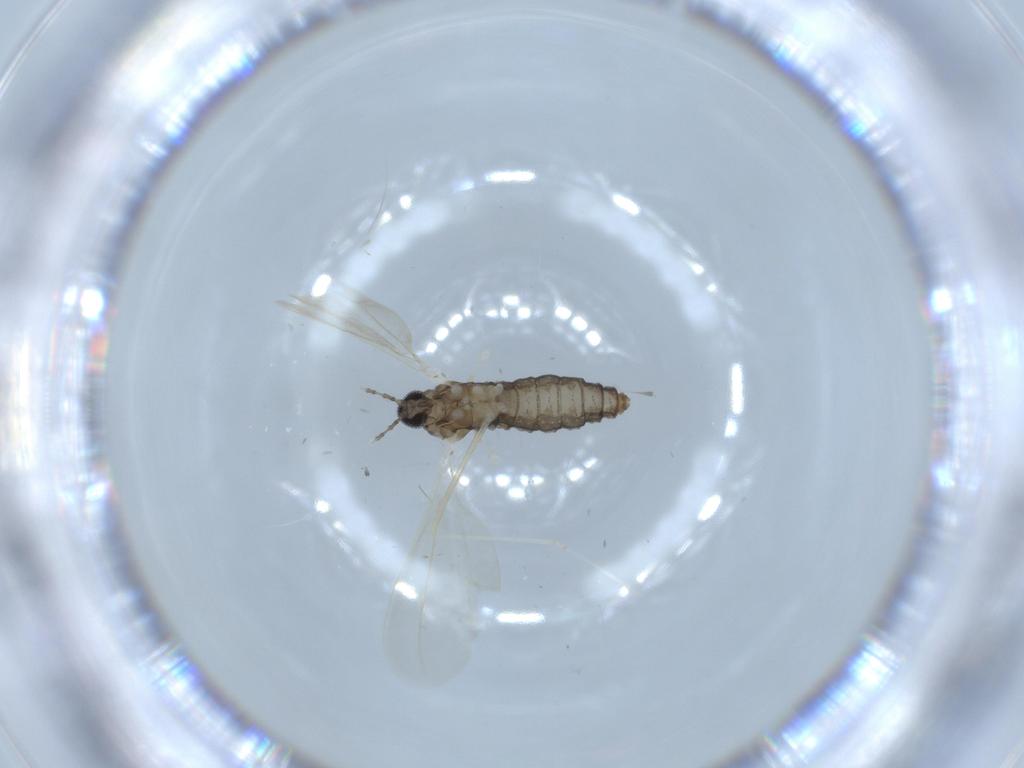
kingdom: Animalia
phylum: Arthropoda
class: Insecta
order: Diptera
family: Cecidomyiidae
